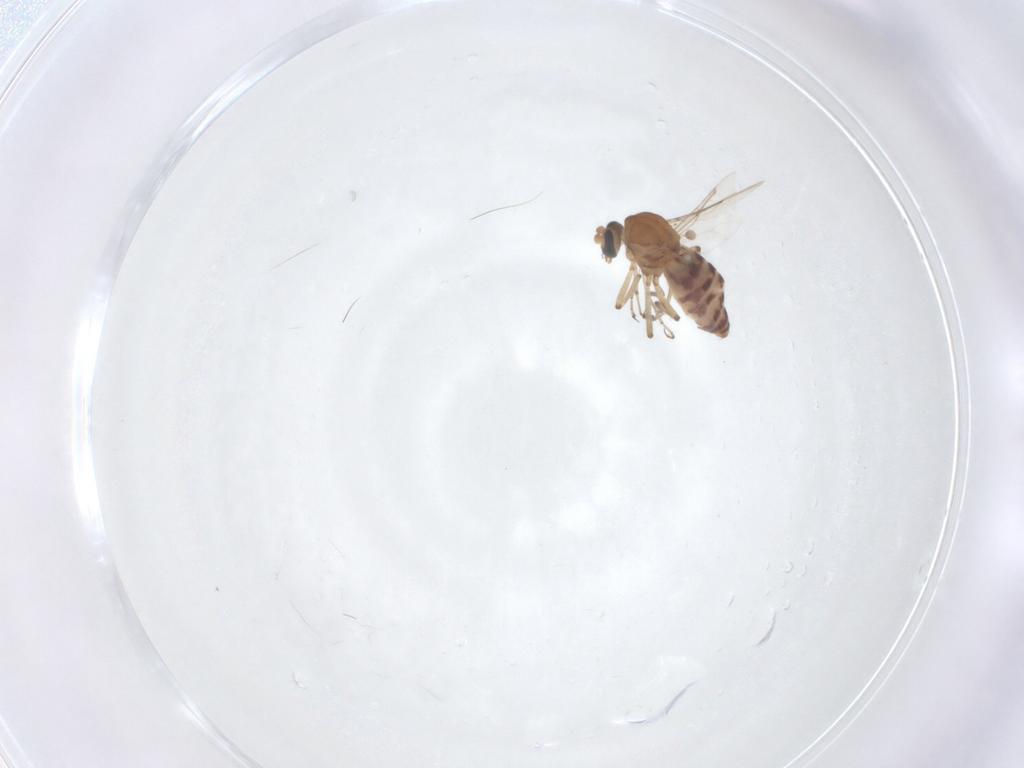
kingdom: Animalia
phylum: Arthropoda
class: Insecta
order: Diptera
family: Ceratopogonidae
